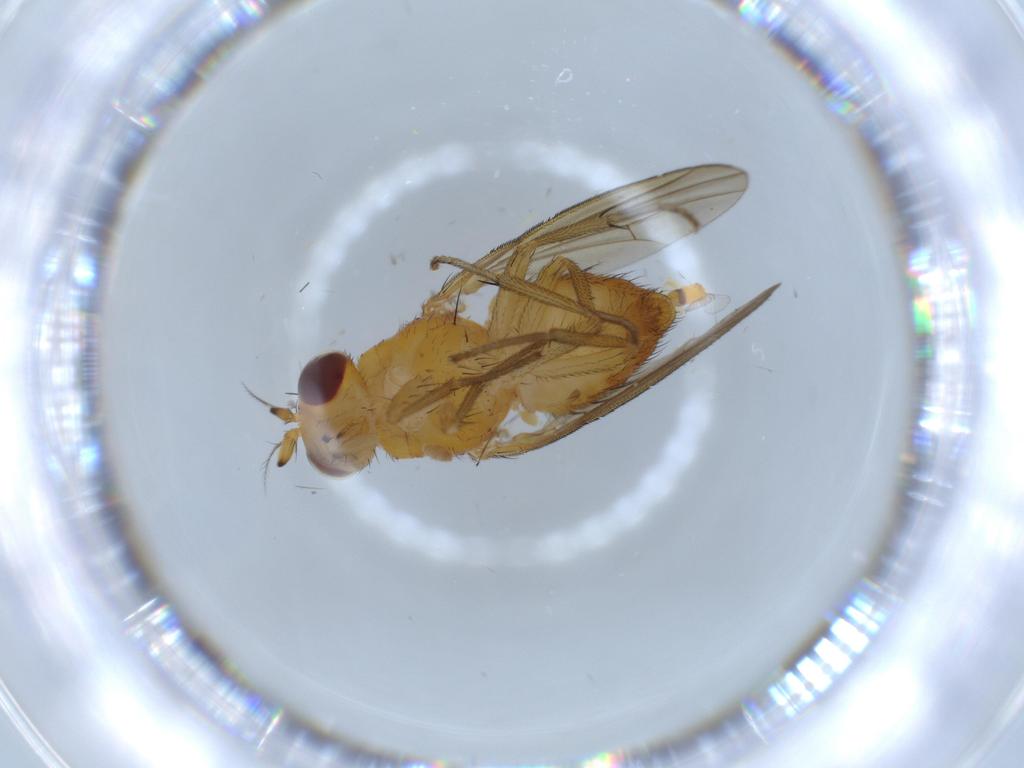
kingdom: Animalia
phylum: Arthropoda
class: Insecta
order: Diptera
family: Lauxaniidae
